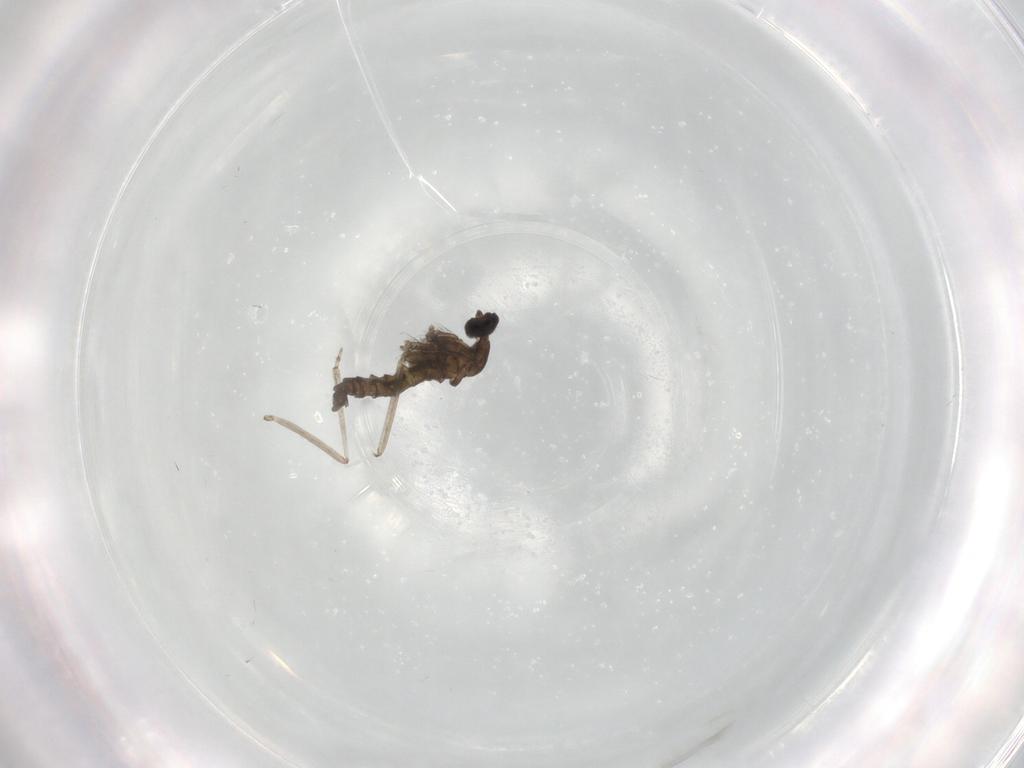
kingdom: Animalia
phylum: Arthropoda
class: Insecta
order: Diptera
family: Cecidomyiidae
